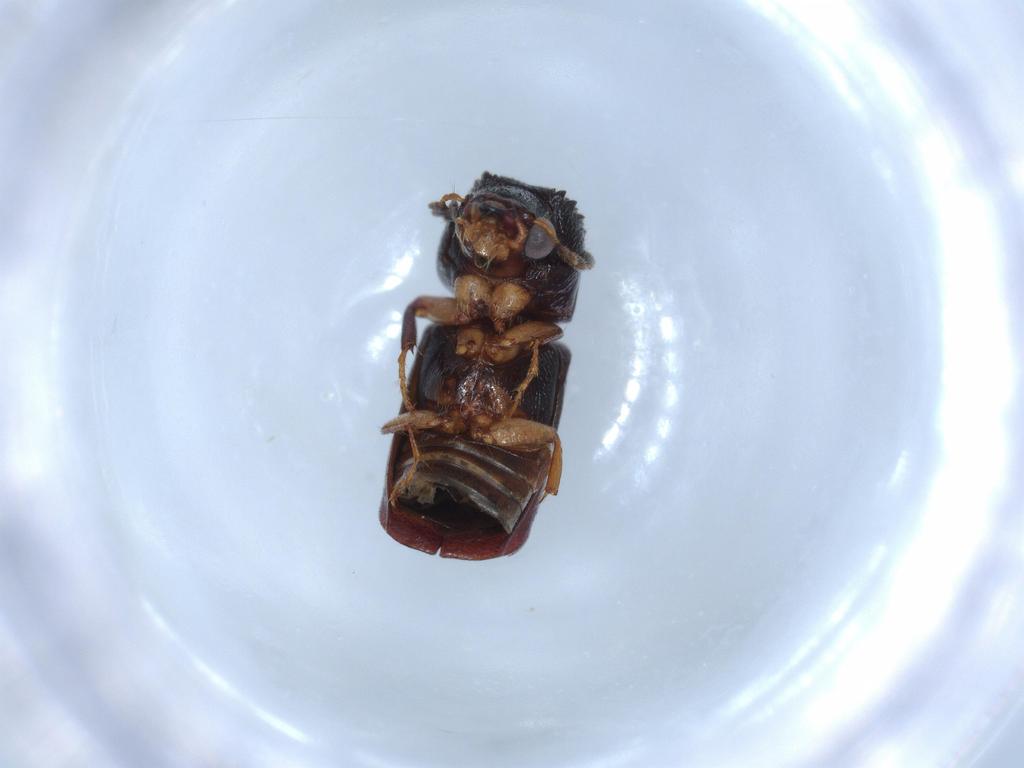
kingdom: Animalia
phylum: Arthropoda
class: Insecta
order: Coleoptera
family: Bostrichidae
